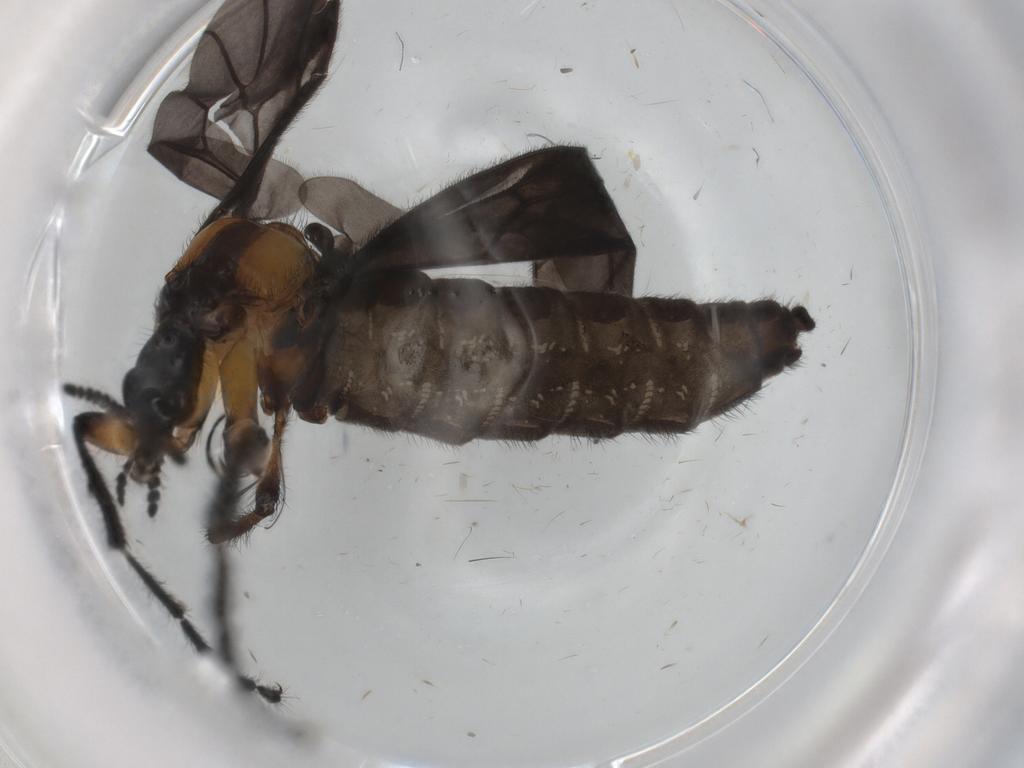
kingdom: Animalia
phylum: Arthropoda
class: Insecta
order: Diptera
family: Bibionidae
